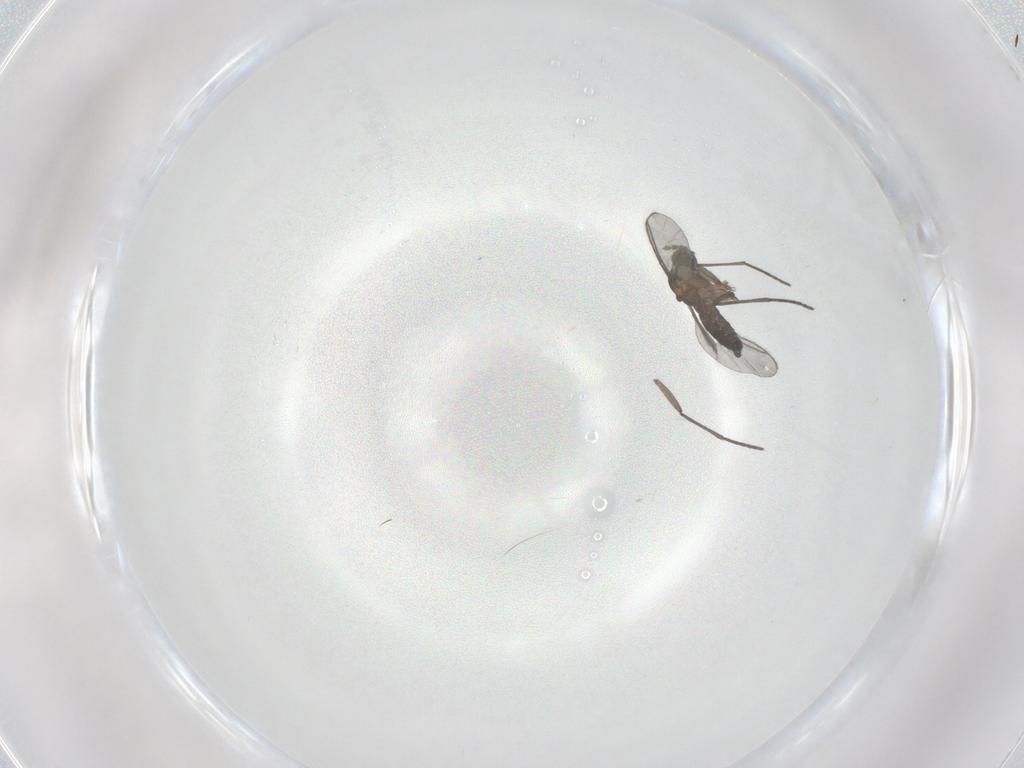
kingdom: Animalia
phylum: Arthropoda
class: Insecta
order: Diptera
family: Sciaridae
